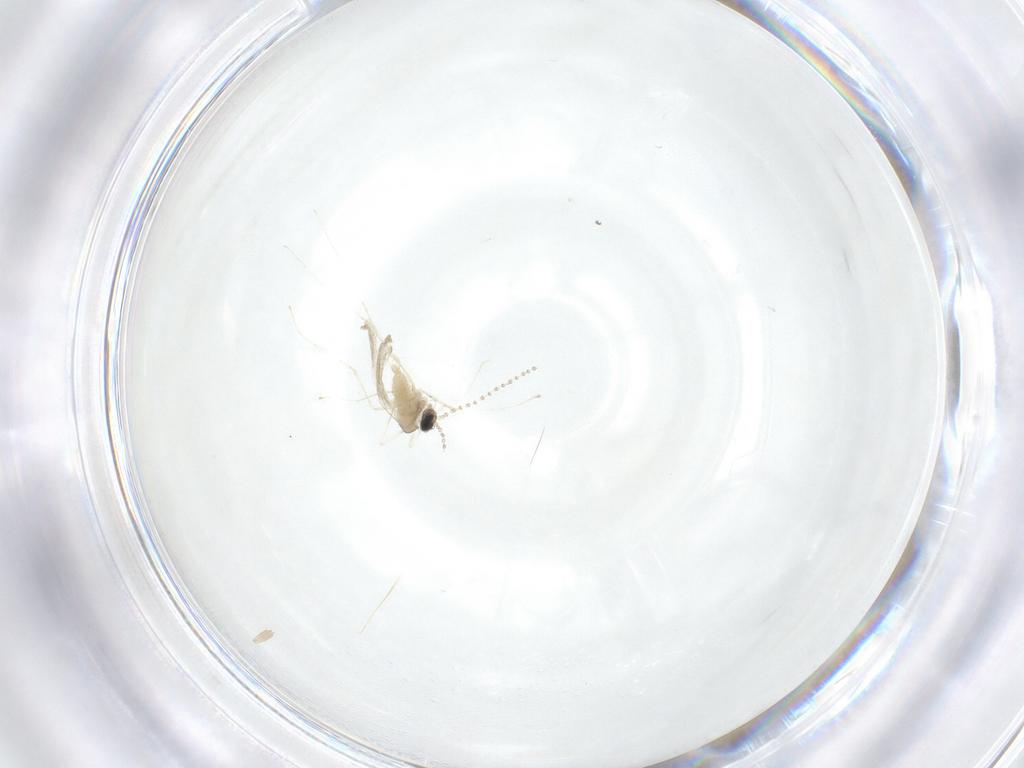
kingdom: Animalia
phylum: Arthropoda
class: Insecta
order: Diptera
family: Cecidomyiidae
